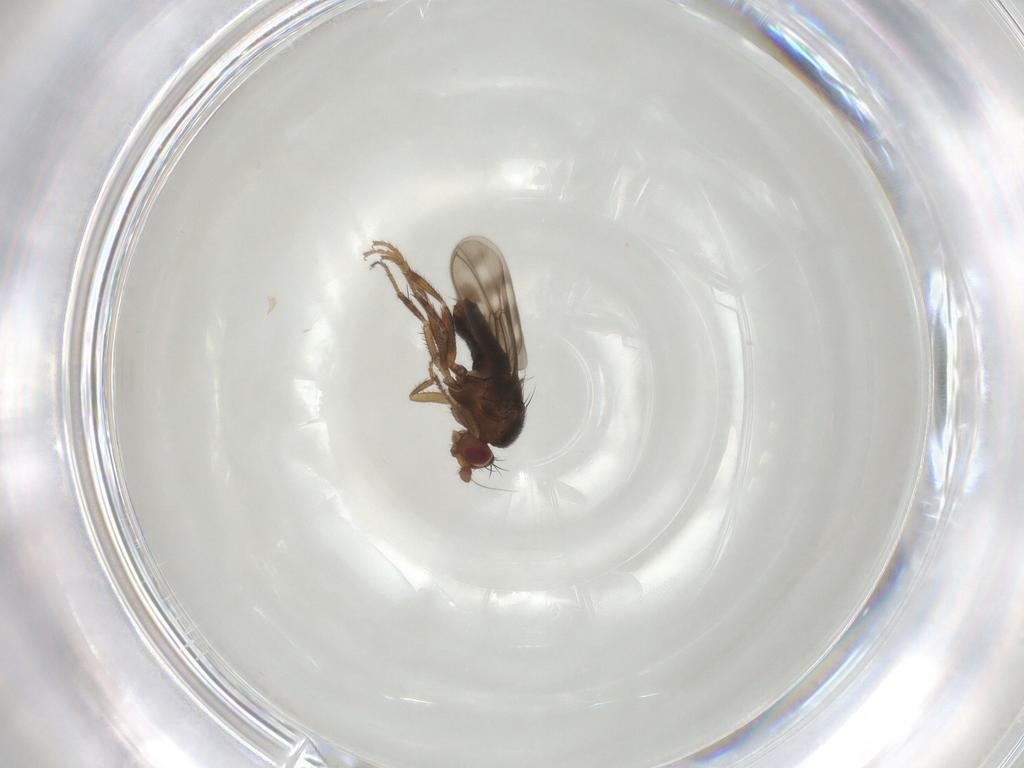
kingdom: Animalia
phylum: Arthropoda
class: Insecta
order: Diptera
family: Sphaeroceridae
